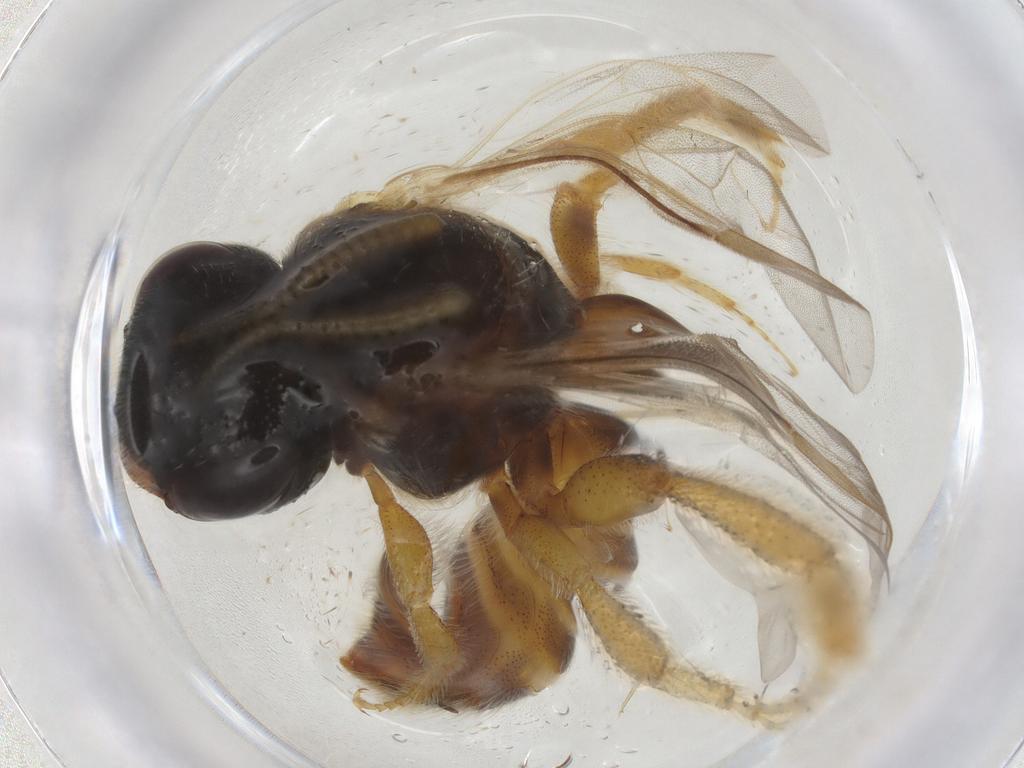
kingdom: Animalia
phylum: Arthropoda
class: Insecta
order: Hymenoptera
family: Halictidae
